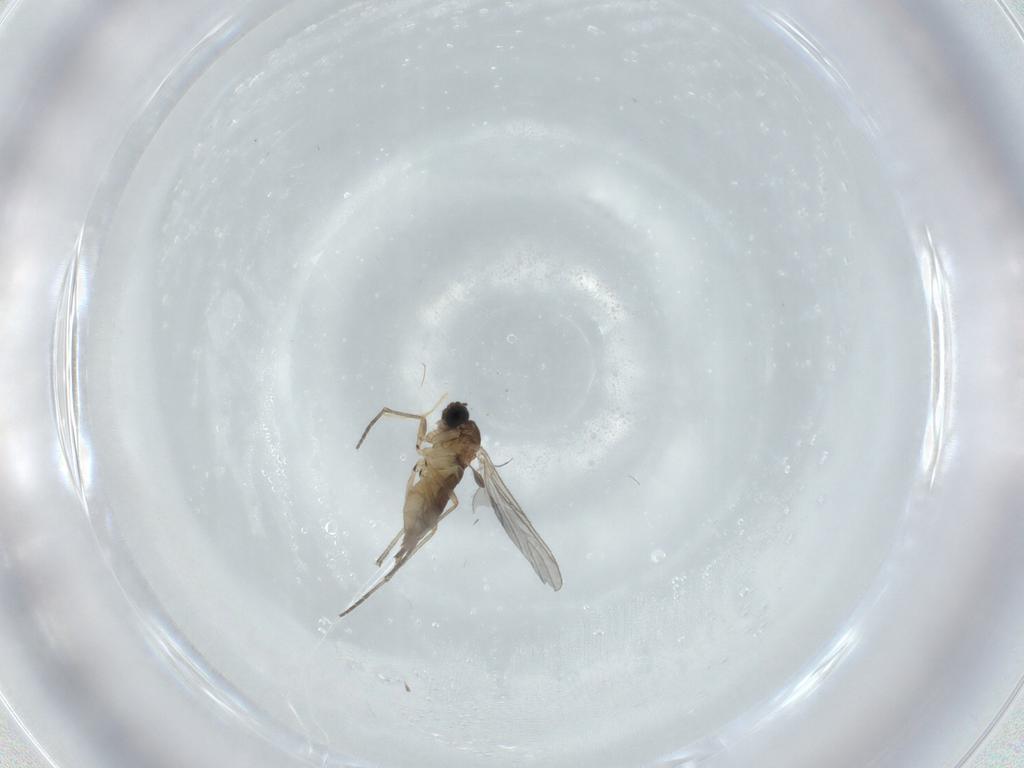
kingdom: Animalia
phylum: Arthropoda
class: Insecta
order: Diptera
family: Sciaridae
